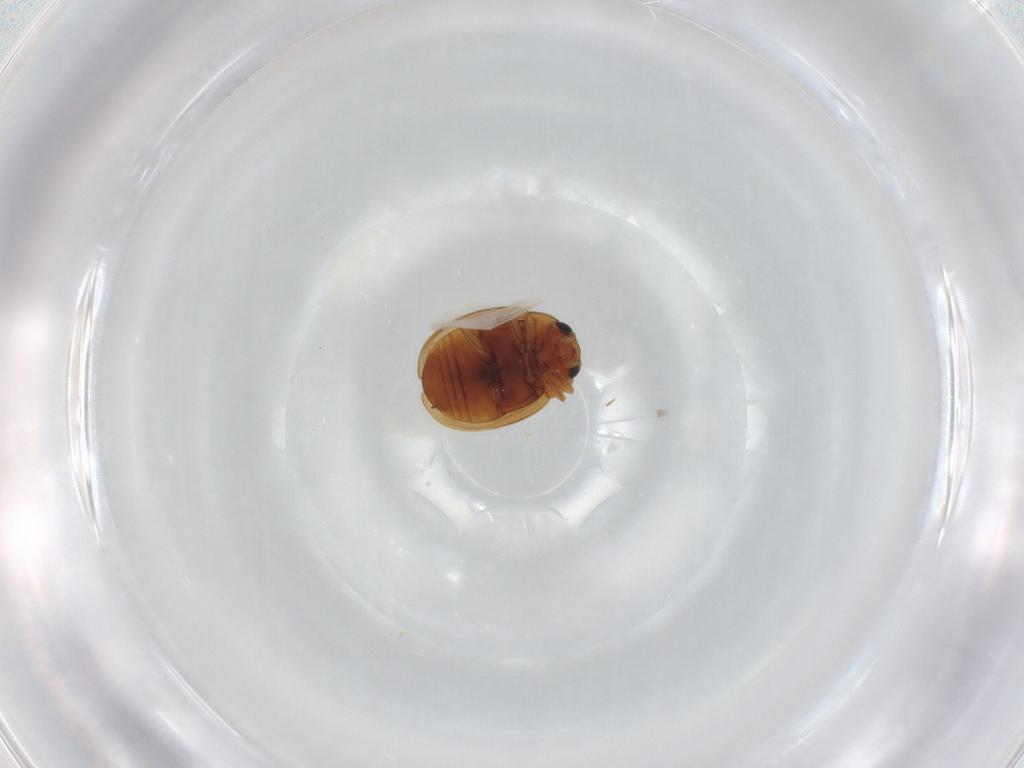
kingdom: Animalia
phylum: Arthropoda
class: Insecta
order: Coleoptera
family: Coccinellidae
